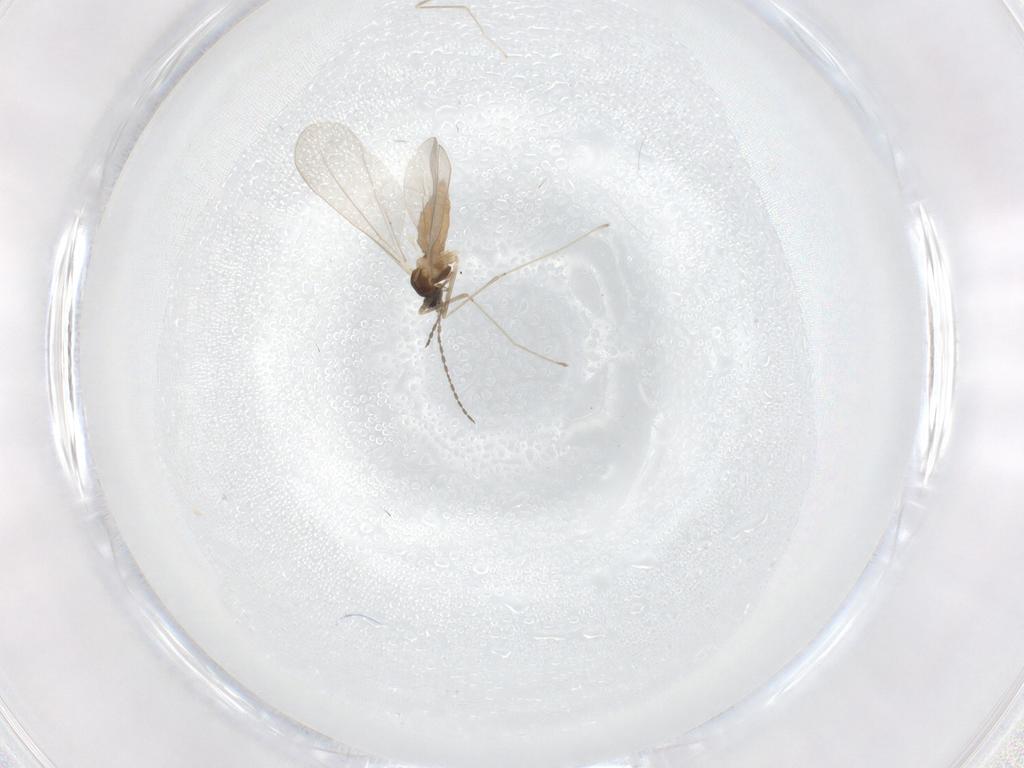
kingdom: Animalia
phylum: Arthropoda
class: Insecta
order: Diptera
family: Cecidomyiidae
